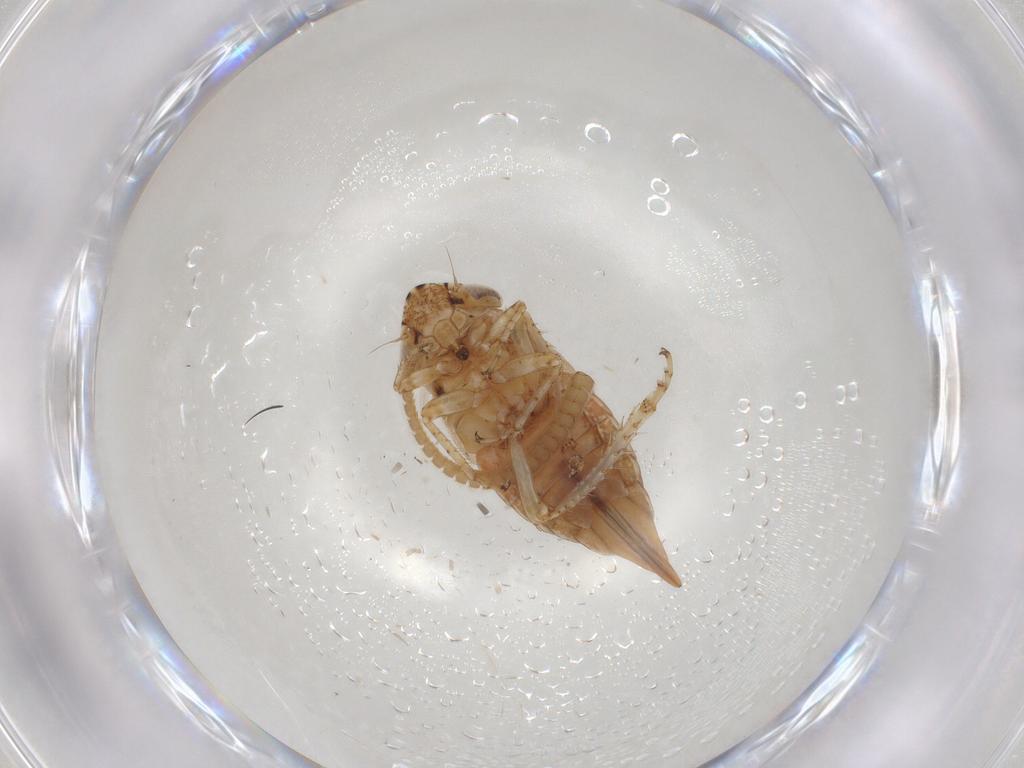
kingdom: Animalia
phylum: Arthropoda
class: Insecta
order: Hemiptera
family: Cicadellidae
